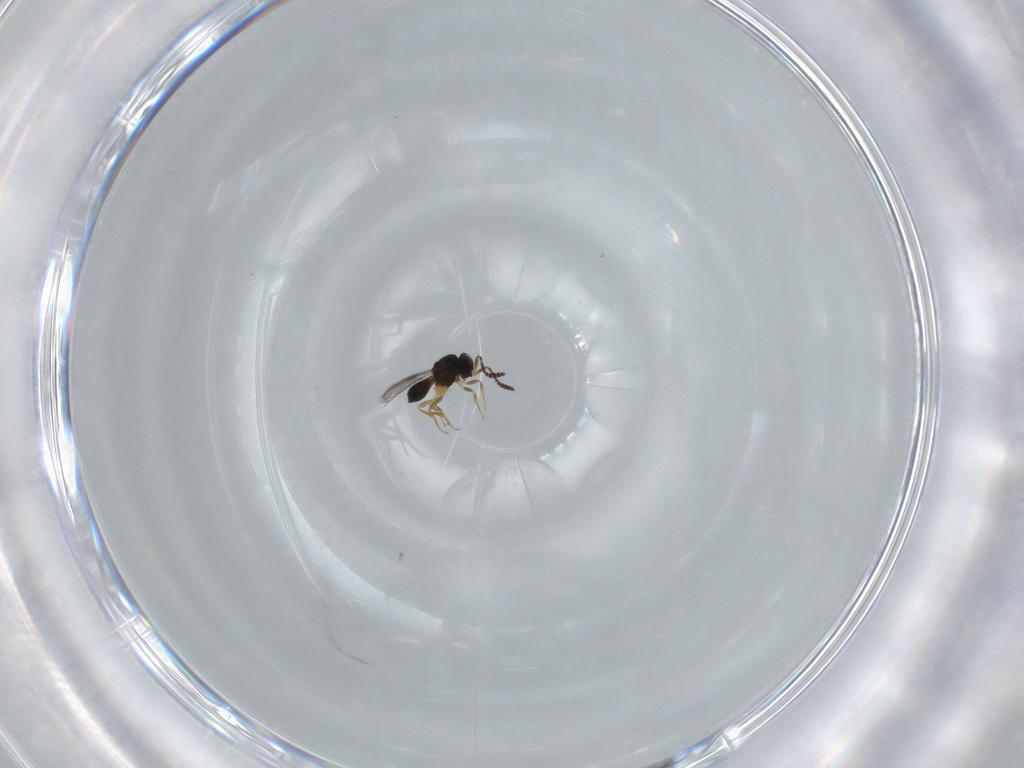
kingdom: Animalia
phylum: Arthropoda
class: Insecta
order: Hymenoptera
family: Scelionidae
